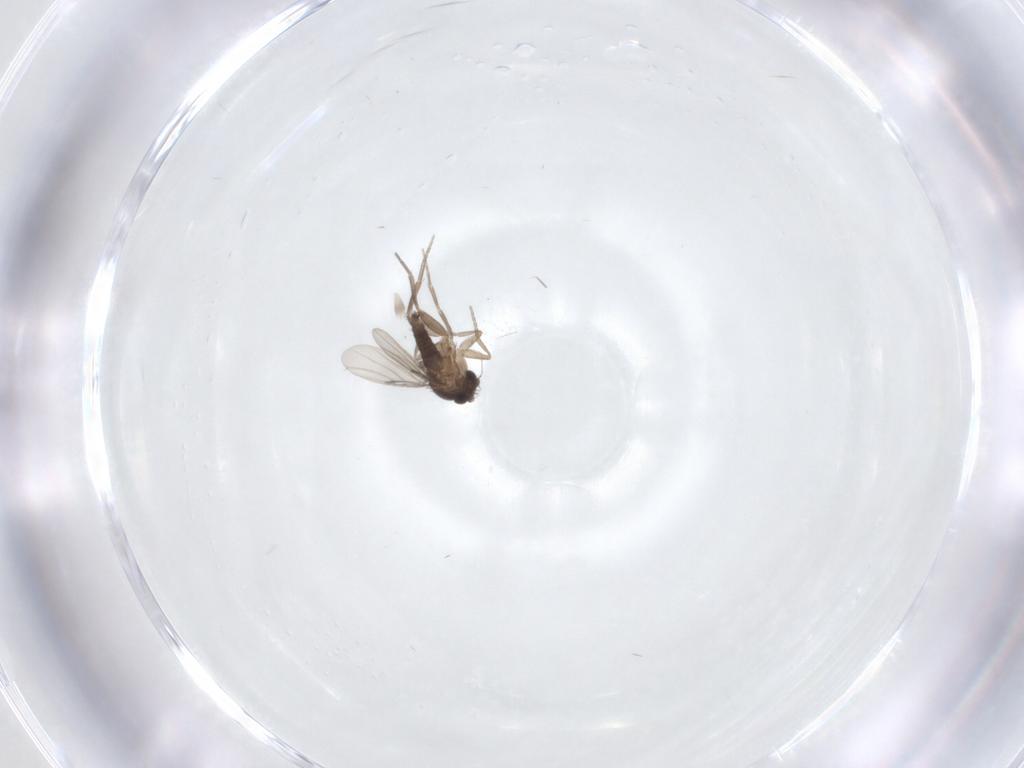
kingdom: Animalia
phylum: Arthropoda
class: Insecta
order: Diptera
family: Phoridae
